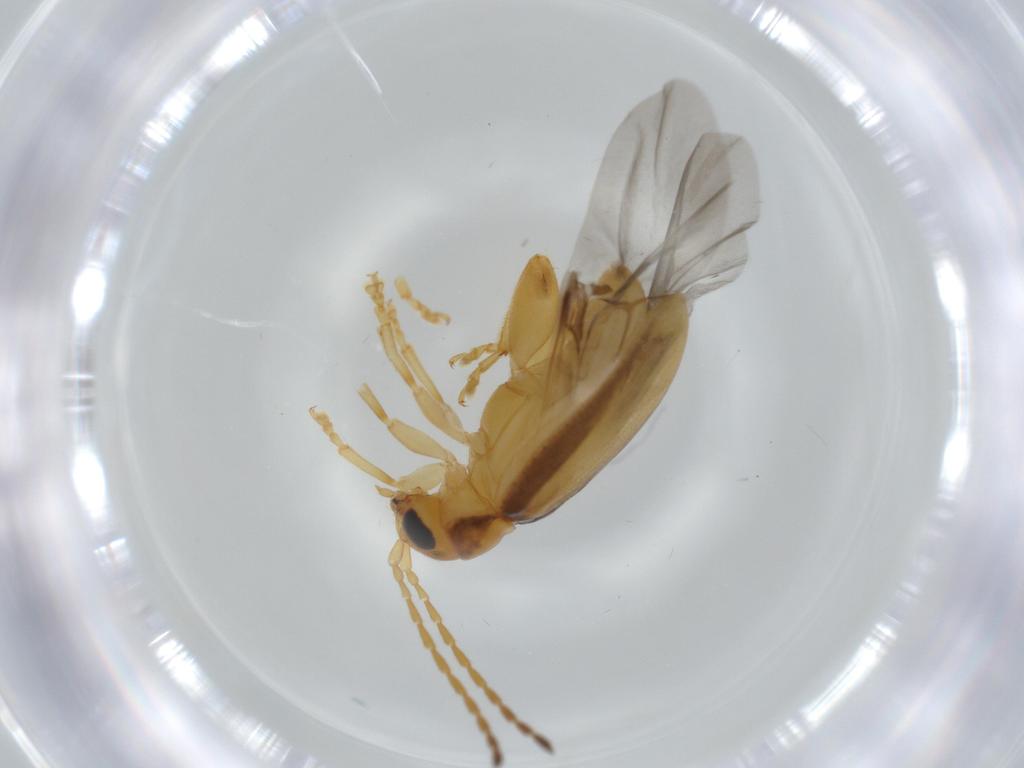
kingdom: Animalia
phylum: Arthropoda
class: Insecta
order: Coleoptera
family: Chrysomelidae
